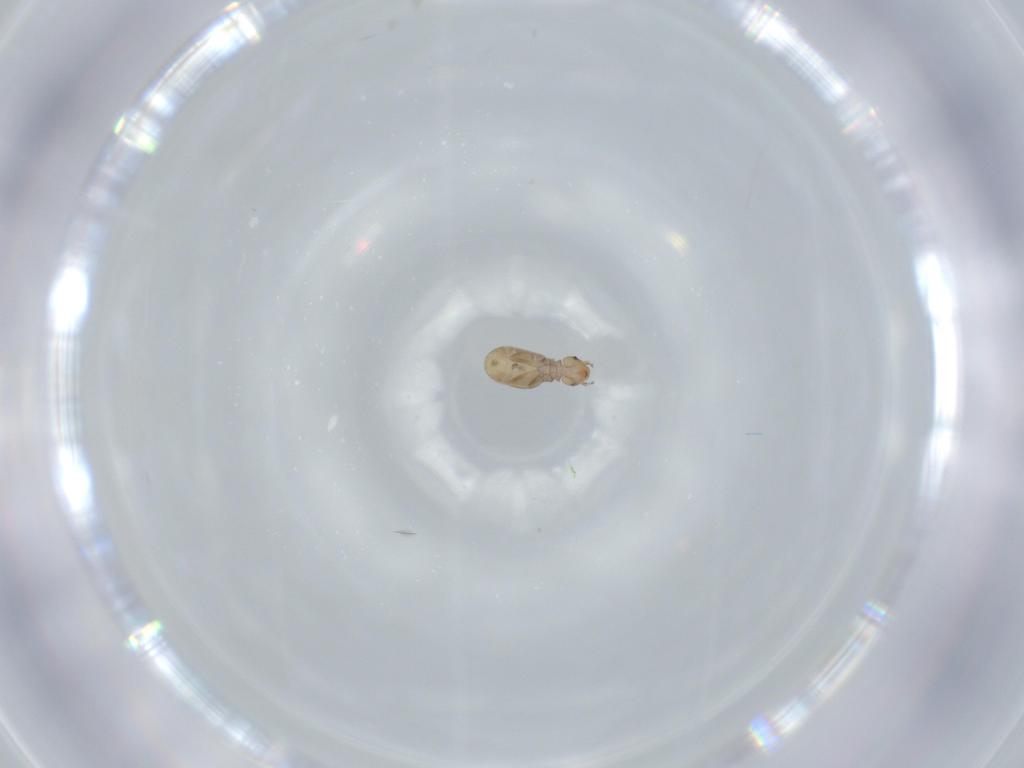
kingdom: Animalia
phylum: Arthropoda
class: Insecta
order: Psocodea
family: Liposcelididae
